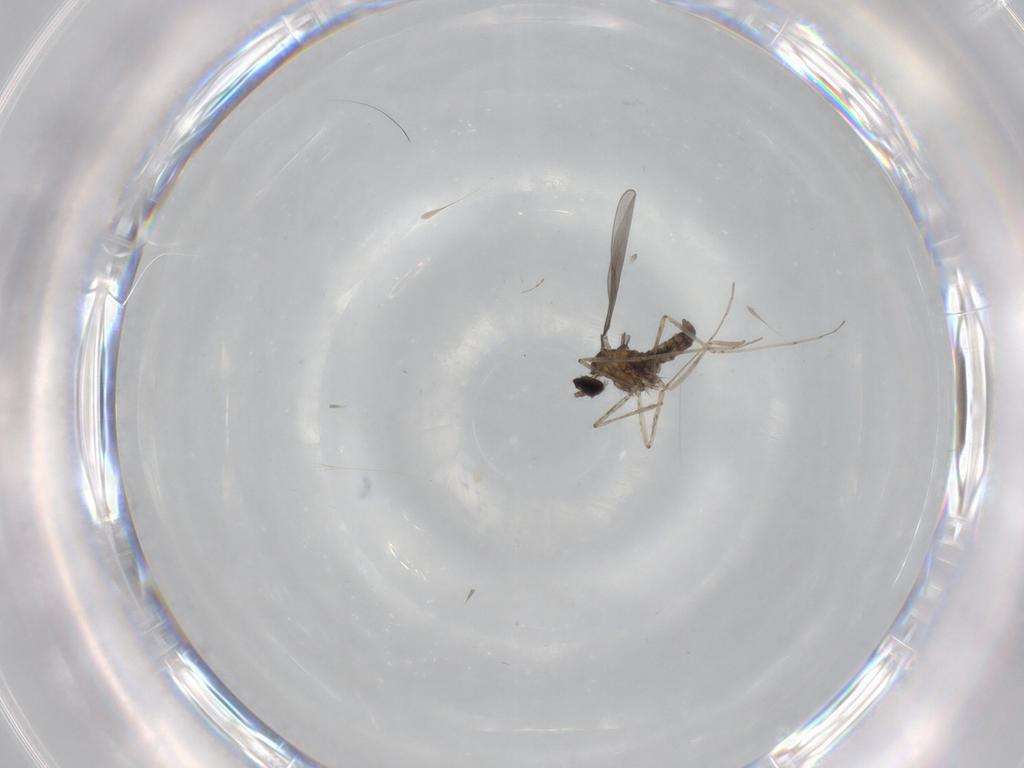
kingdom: Animalia
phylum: Arthropoda
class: Insecta
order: Diptera
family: Cecidomyiidae
